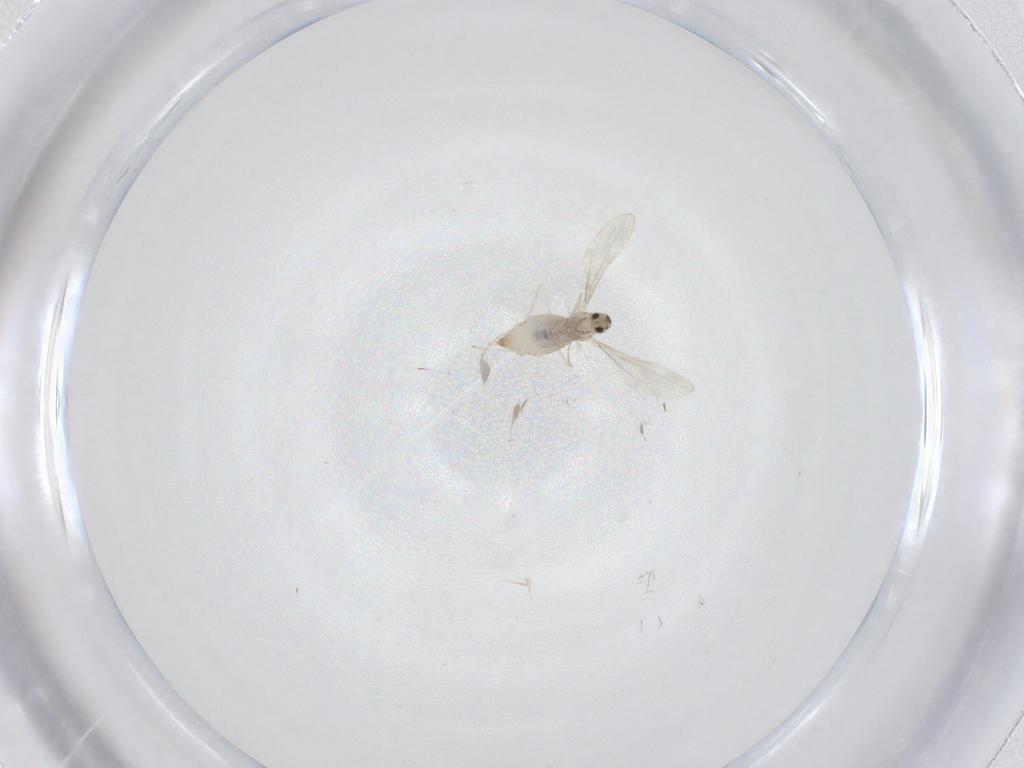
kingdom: Animalia
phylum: Arthropoda
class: Insecta
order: Diptera
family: Cecidomyiidae
